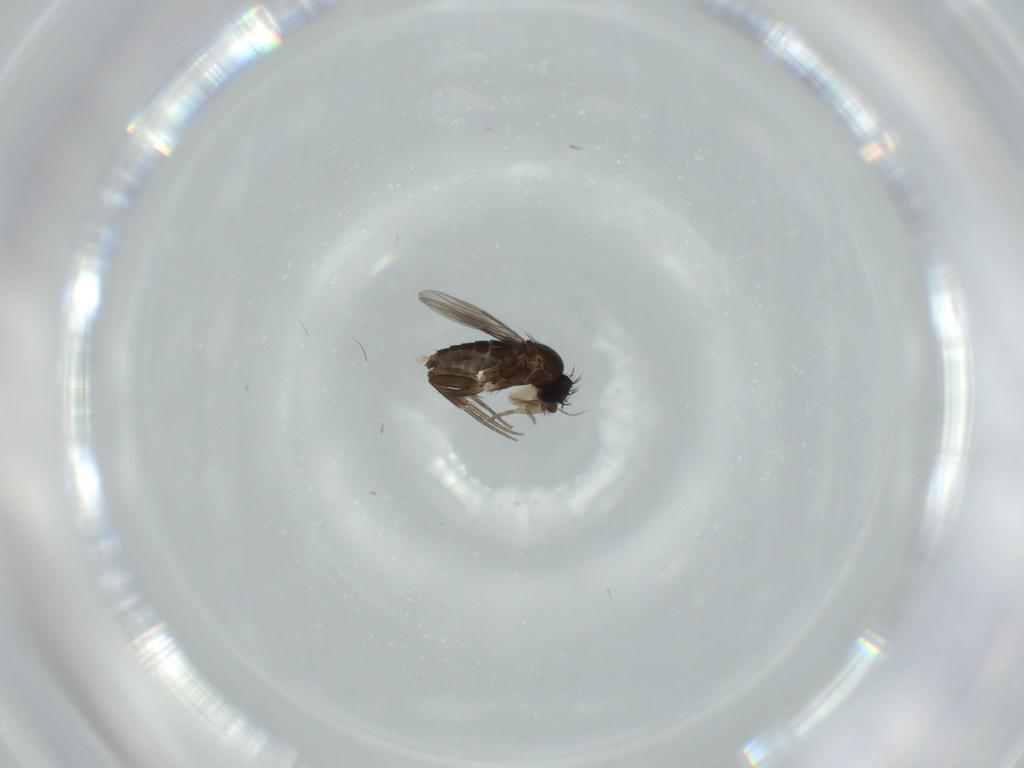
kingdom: Animalia
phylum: Arthropoda
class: Insecta
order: Diptera
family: Phoridae
